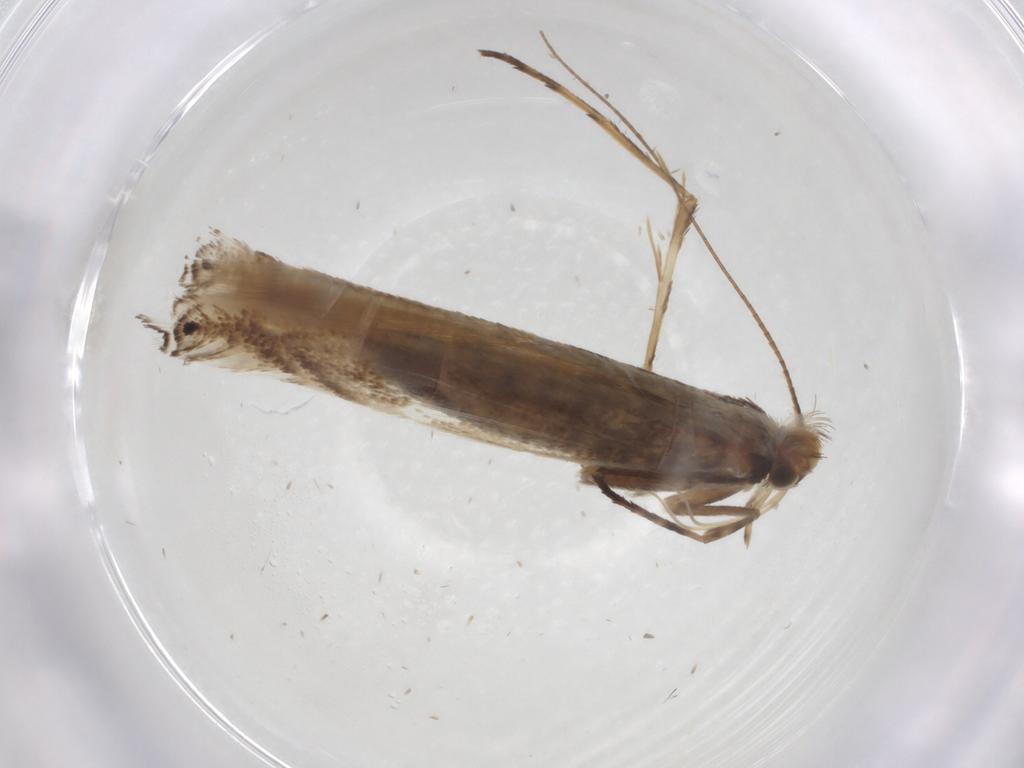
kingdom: Animalia
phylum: Arthropoda
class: Insecta
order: Lepidoptera
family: Gracillariidae
